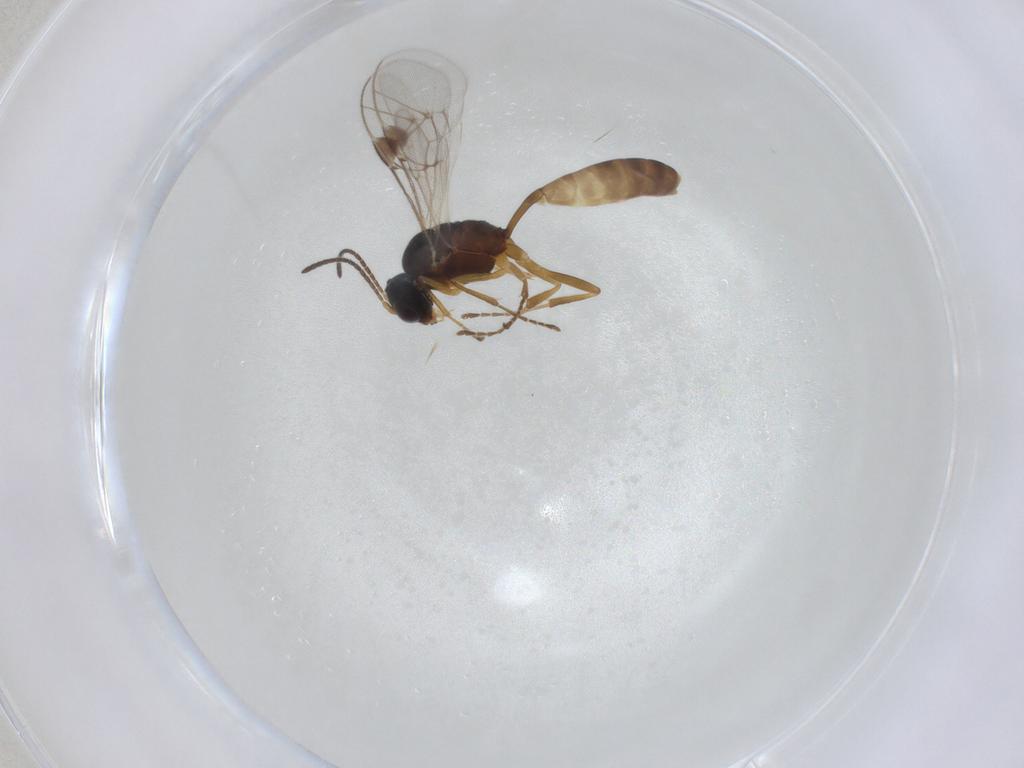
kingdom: Animalia
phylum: Arthropoda
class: Insecta
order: Hymenoptera
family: Ichneumonidae
